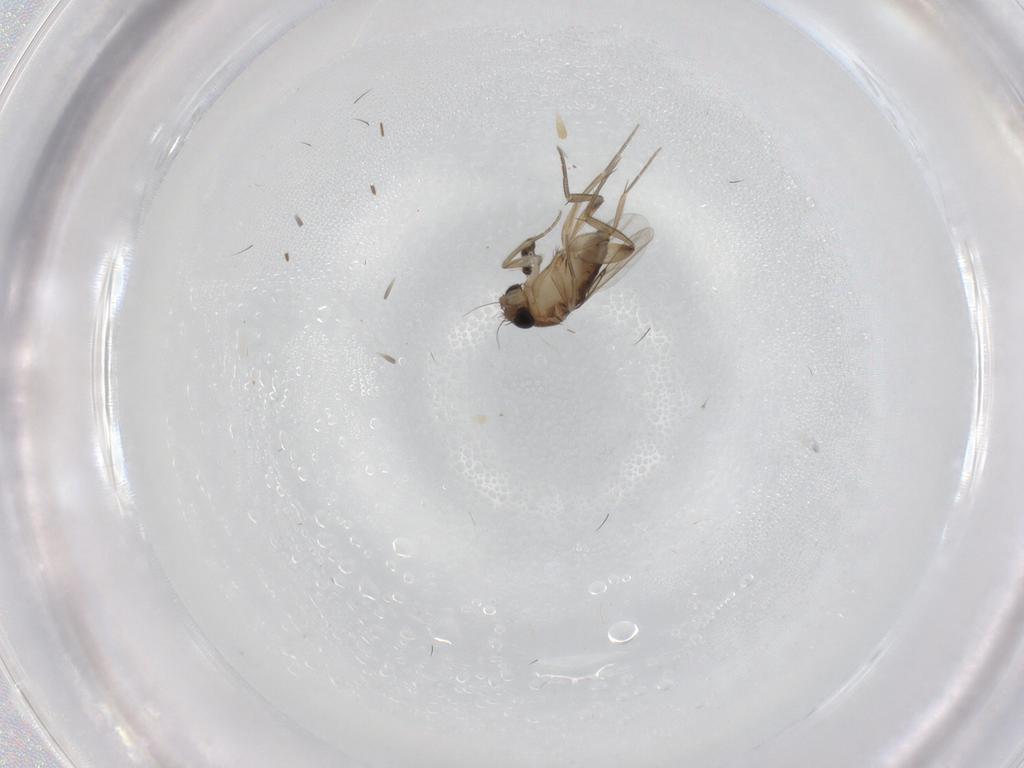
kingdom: Animalia
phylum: Arthropoda
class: Insecta
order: Diptera
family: Phoridae
